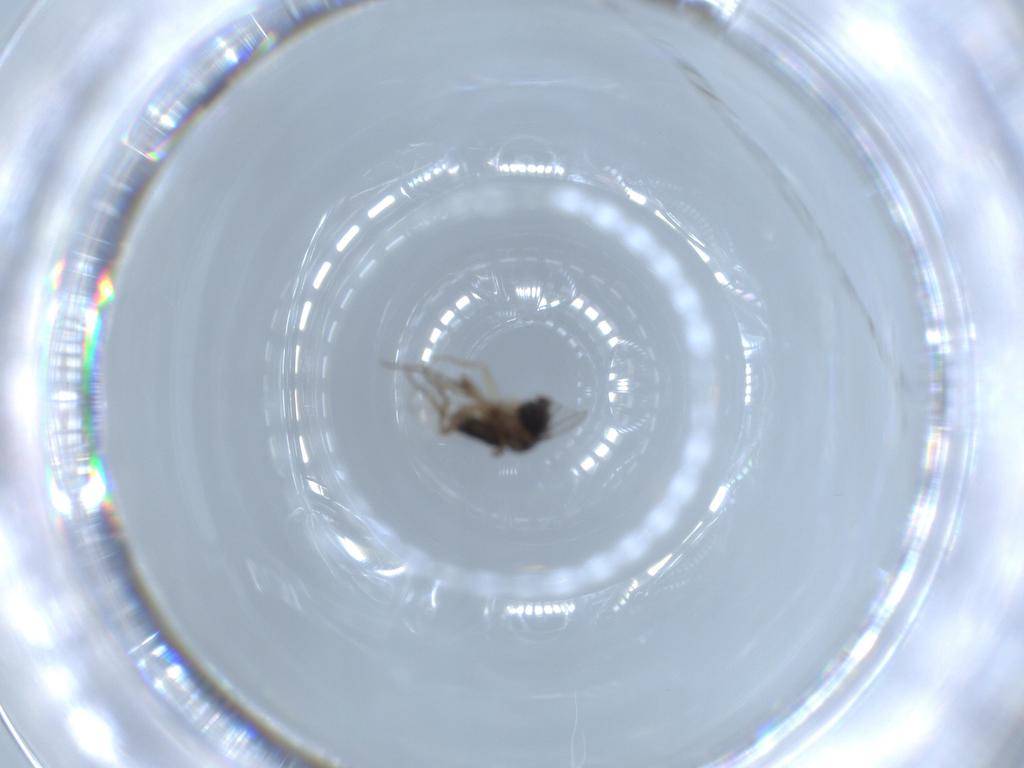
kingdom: Animalia
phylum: Arthropoda
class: Insecta
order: Diptera
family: Phoridae
